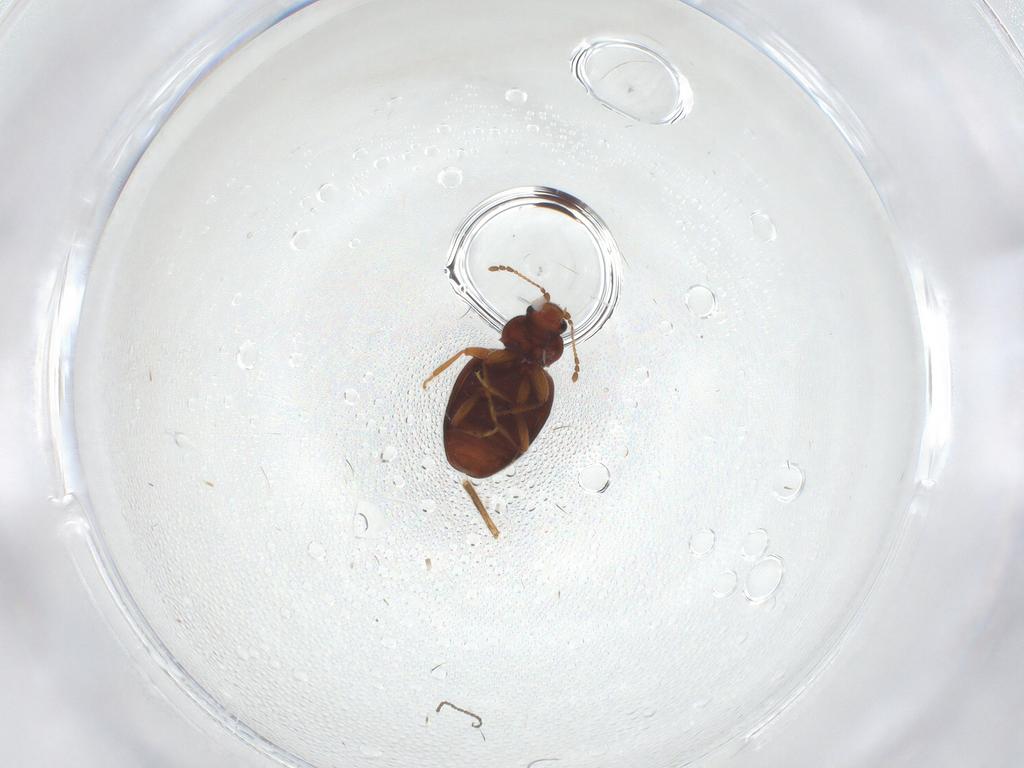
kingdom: Animalia
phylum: Arthropoda
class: Insecta
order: Coleoptera
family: Latridiidae
